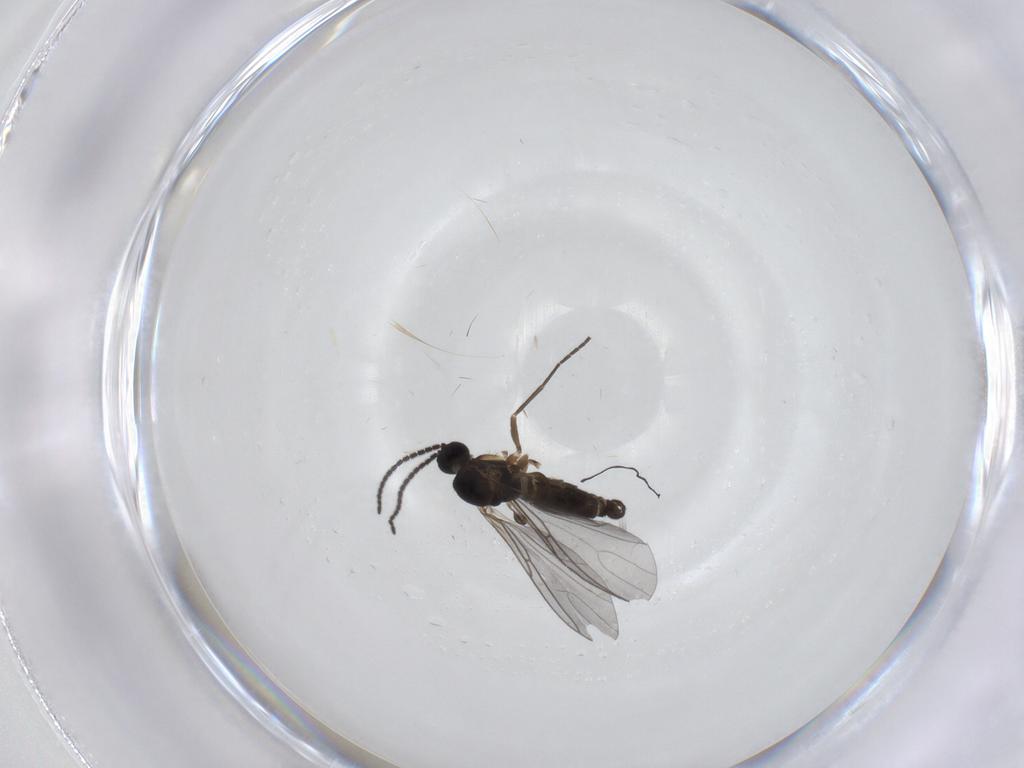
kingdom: Animalia
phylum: Arthropoda
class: Insecta
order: Diptera
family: Sciaridae
